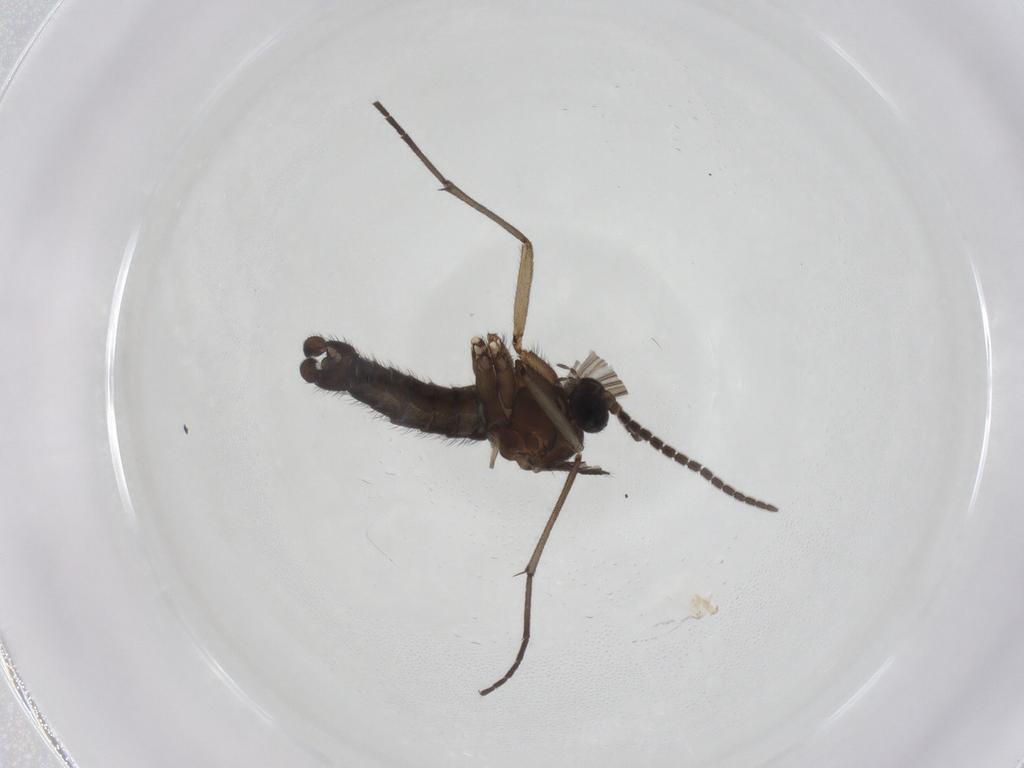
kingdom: Animalia
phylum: Arthropoda
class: Insecta
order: Diptera
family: Sciaridae
